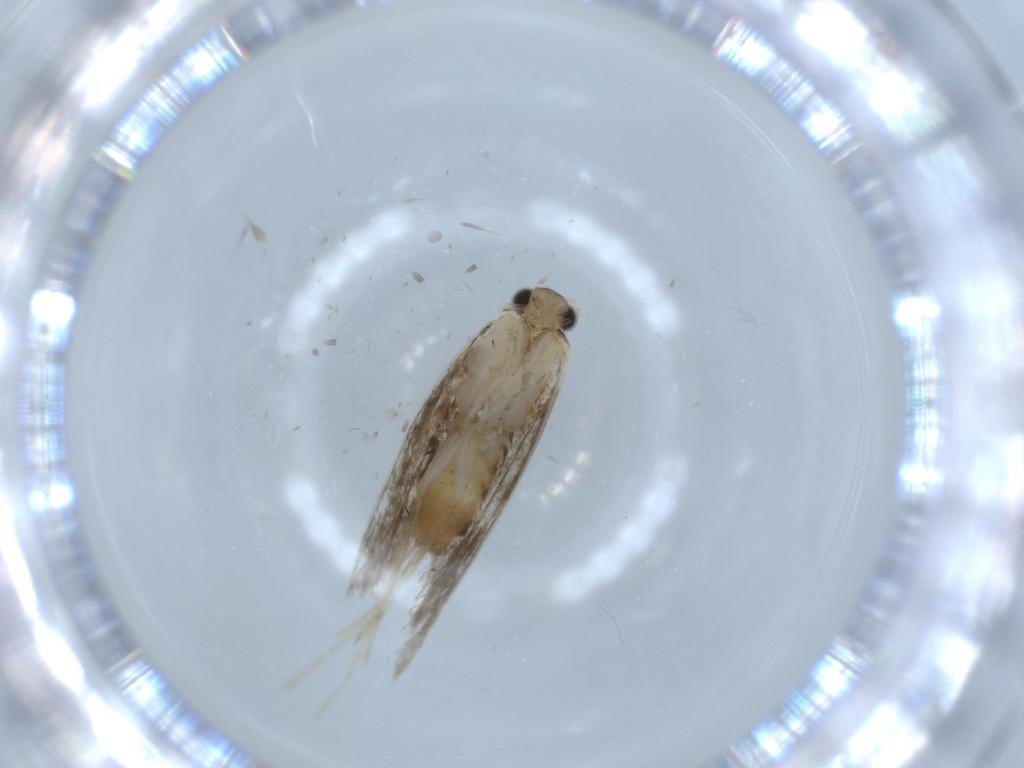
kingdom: Animalia
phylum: Arthropoda
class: Insecta
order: Lepidoptera
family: Tineidae
